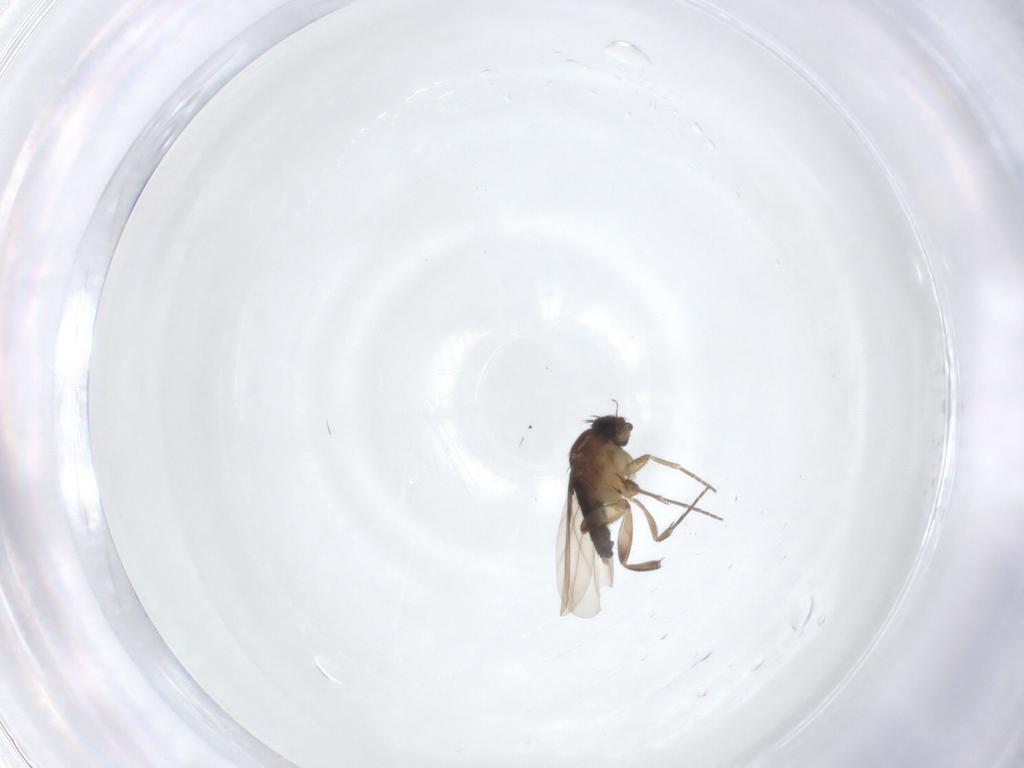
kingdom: Animalia
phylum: Arthropoda
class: Insecta
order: Diptera
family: Phoridae
